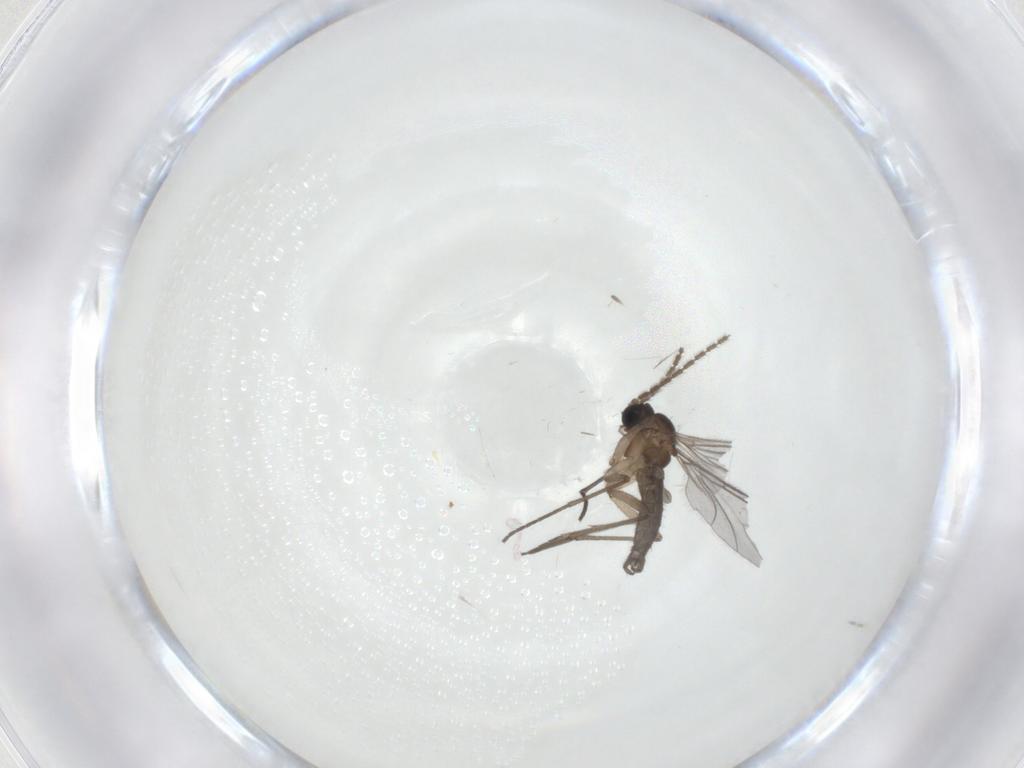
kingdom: Animalia
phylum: Arthropoda
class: Insecta
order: Diptera
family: Sciaridae
